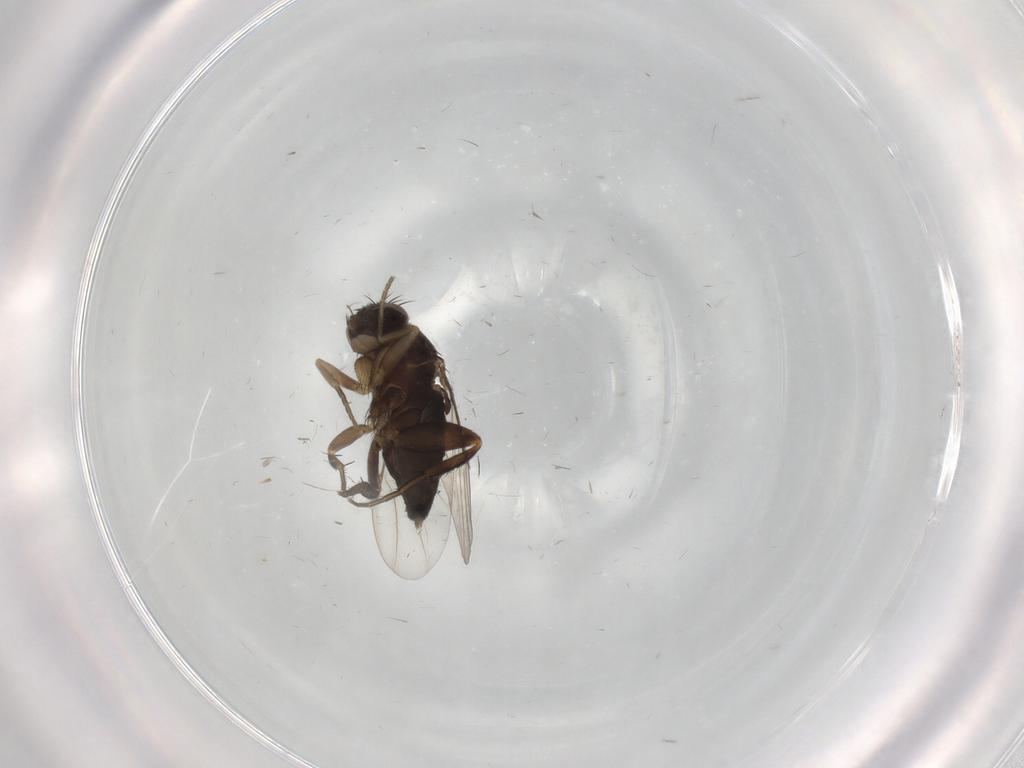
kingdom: Animalia
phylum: Arthropoda
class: Insecta
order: Diptera
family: Phoridae
